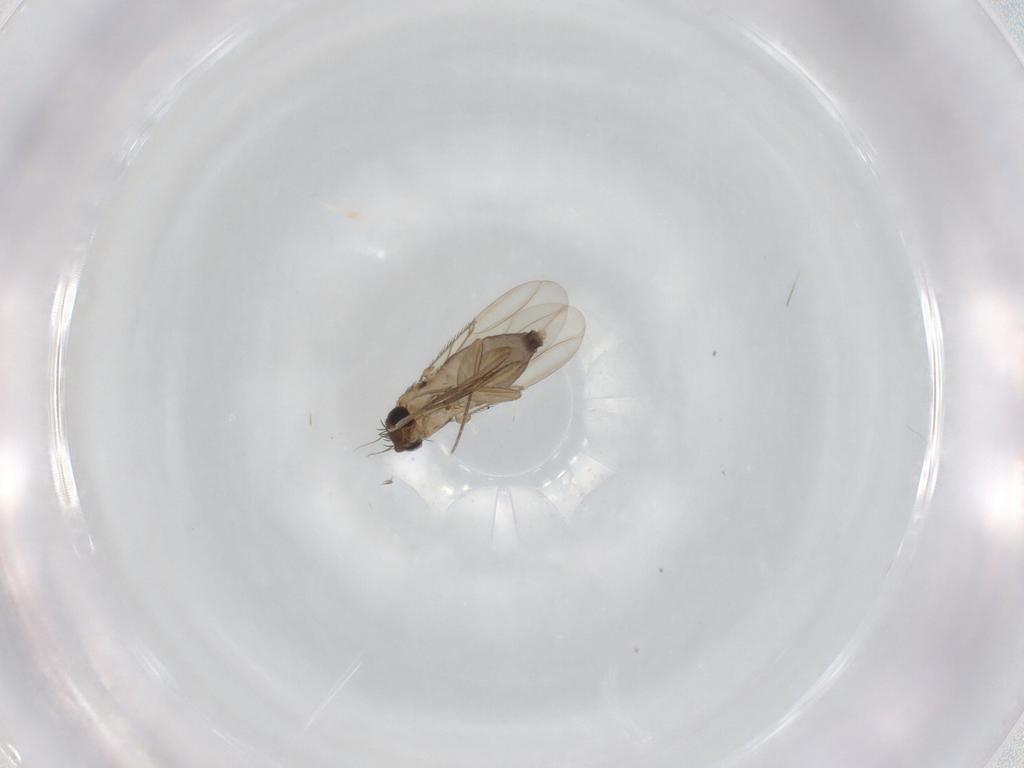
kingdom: Animalia
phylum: Arthropoda
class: Insecta
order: Diptera
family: Phoridae
